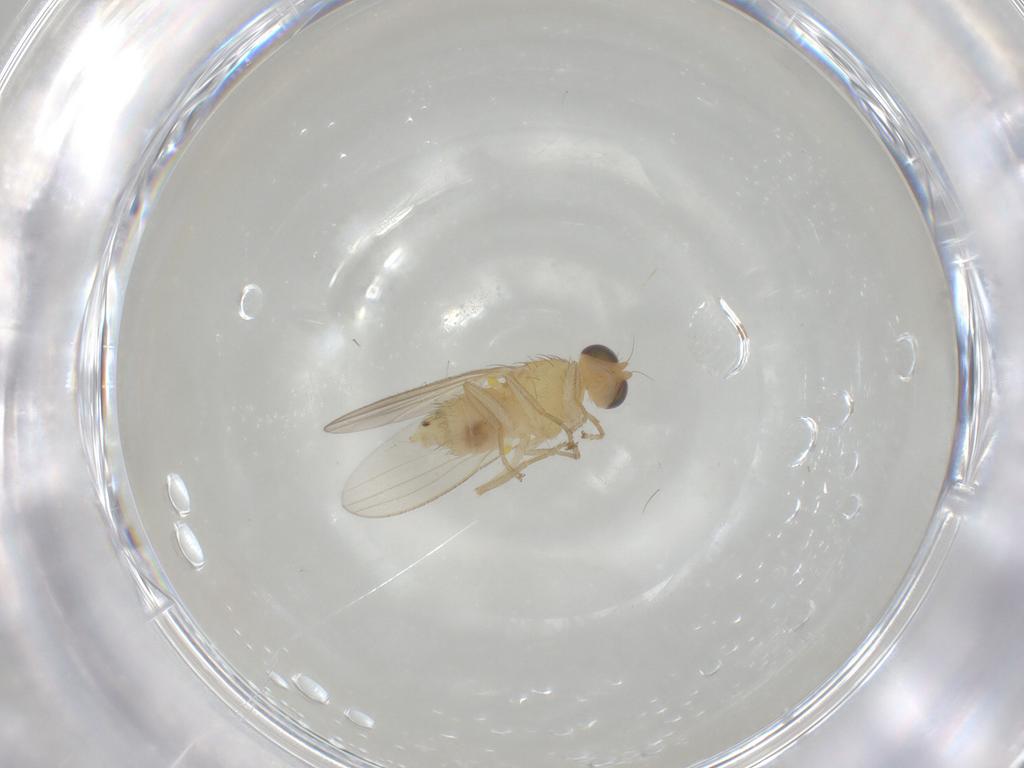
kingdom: Animalia
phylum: Arthropoda
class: Insecta
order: Diptera
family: Chyromyidae
